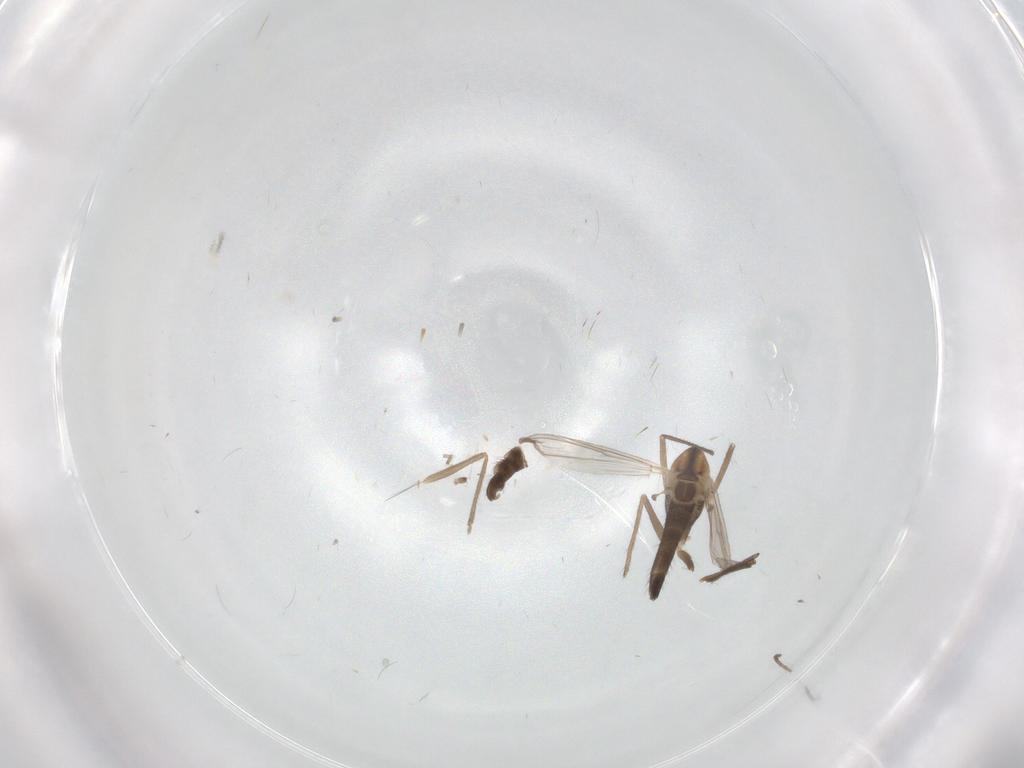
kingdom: Animalia
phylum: Arthropoda
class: Insecta
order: Diptera
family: Chironomidae
